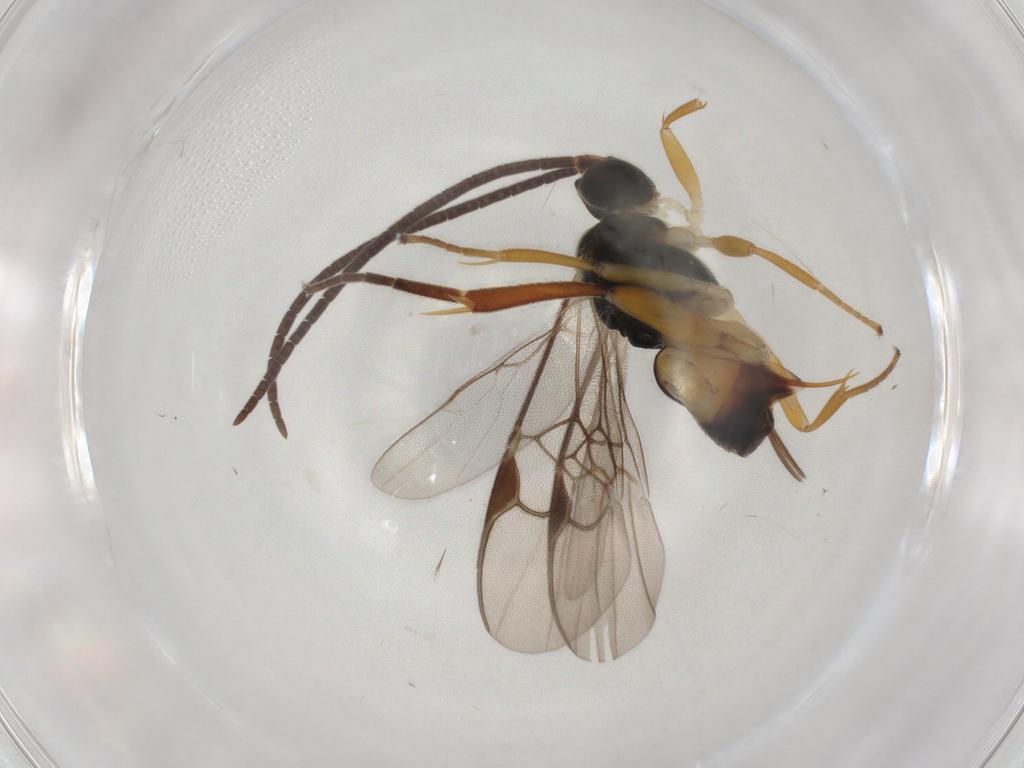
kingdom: Animalia
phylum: Arthropoda
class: Insecta
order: Hymenoptera
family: Braconidae
